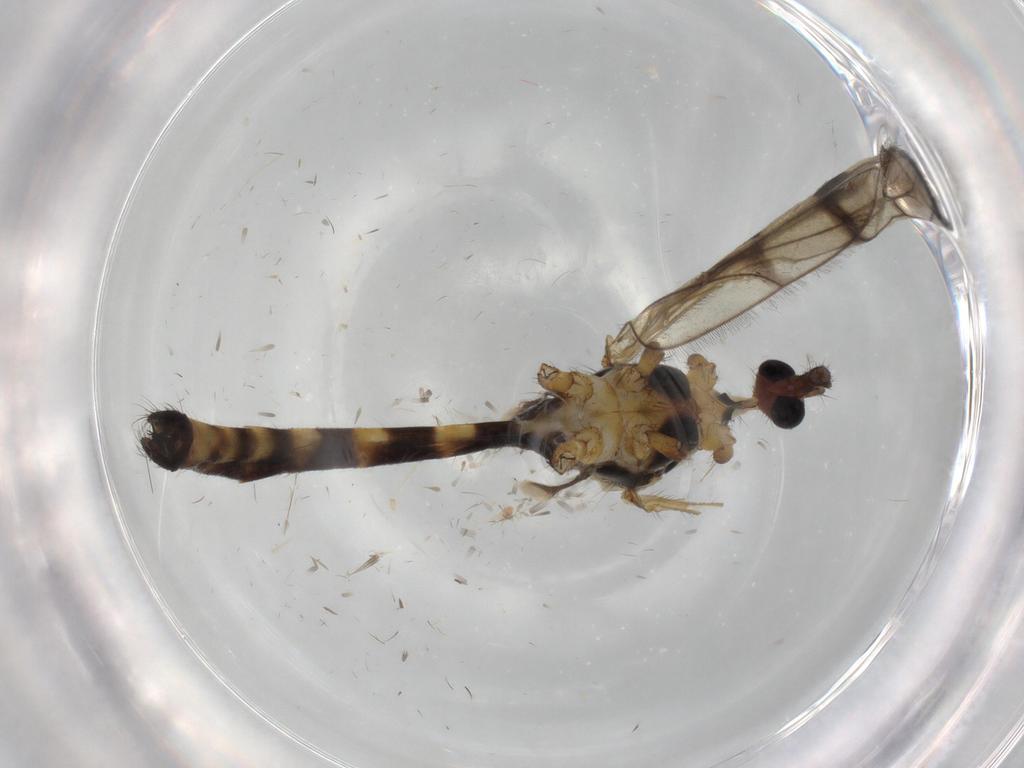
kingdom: Animalia
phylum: Arthropoda
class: Insecta
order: Diptera
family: Limoniidae
